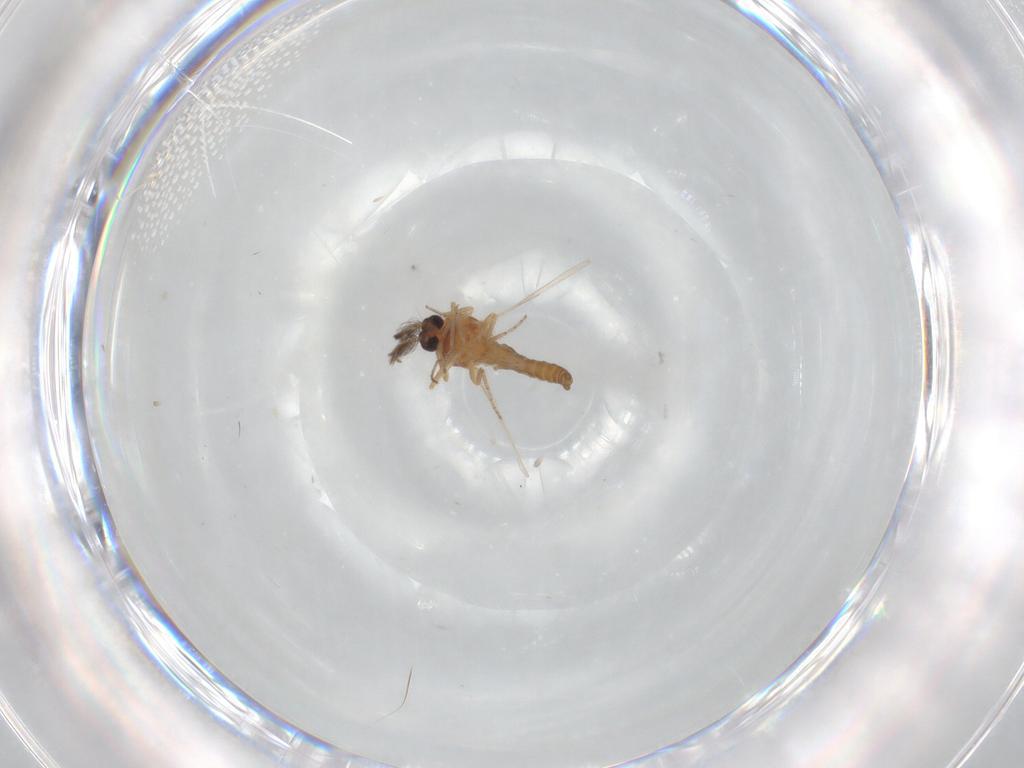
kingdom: Animalia
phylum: Arthropoda
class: Insecta
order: Diptera
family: Ceratopogonidae
